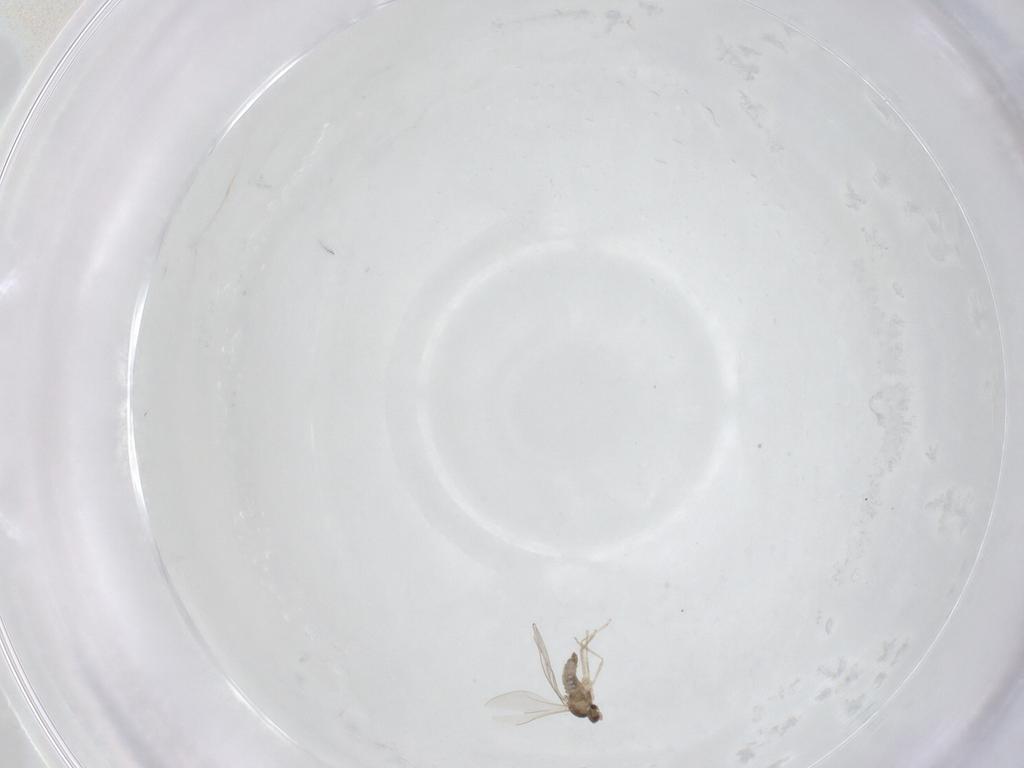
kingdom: Animalia
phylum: Arthropoda
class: Insecta
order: Diptera
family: Cecidomyiidae
